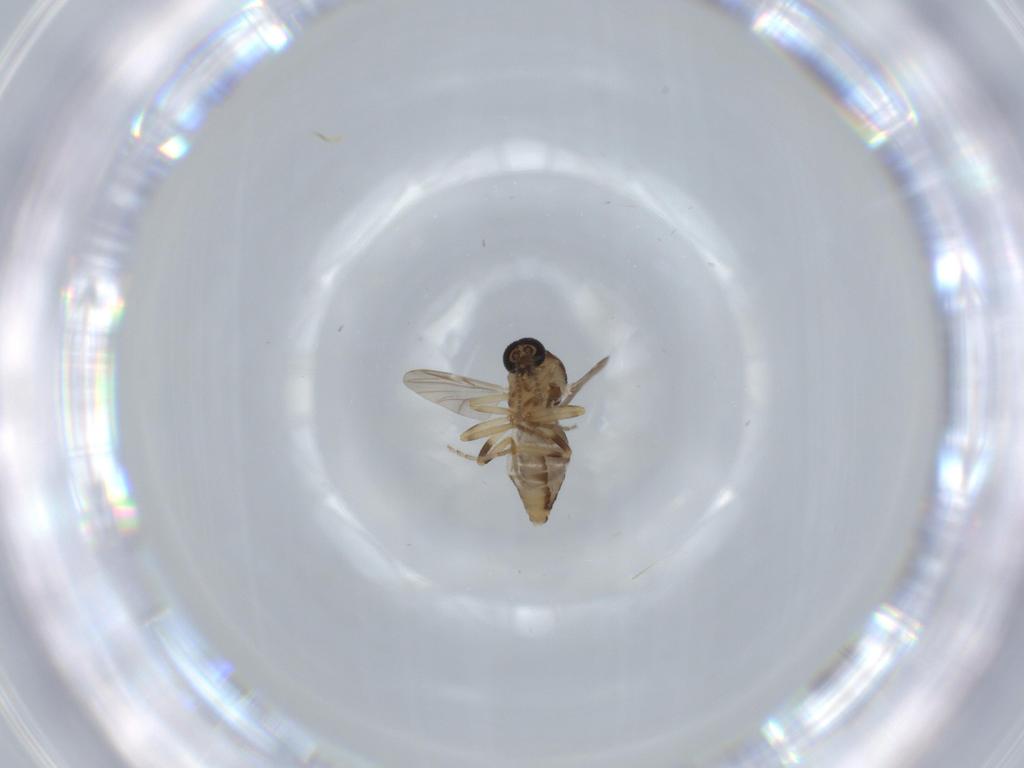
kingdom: Animalia
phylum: Arthropoda
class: Insecta
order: Diptera
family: Ceratopogonidae
